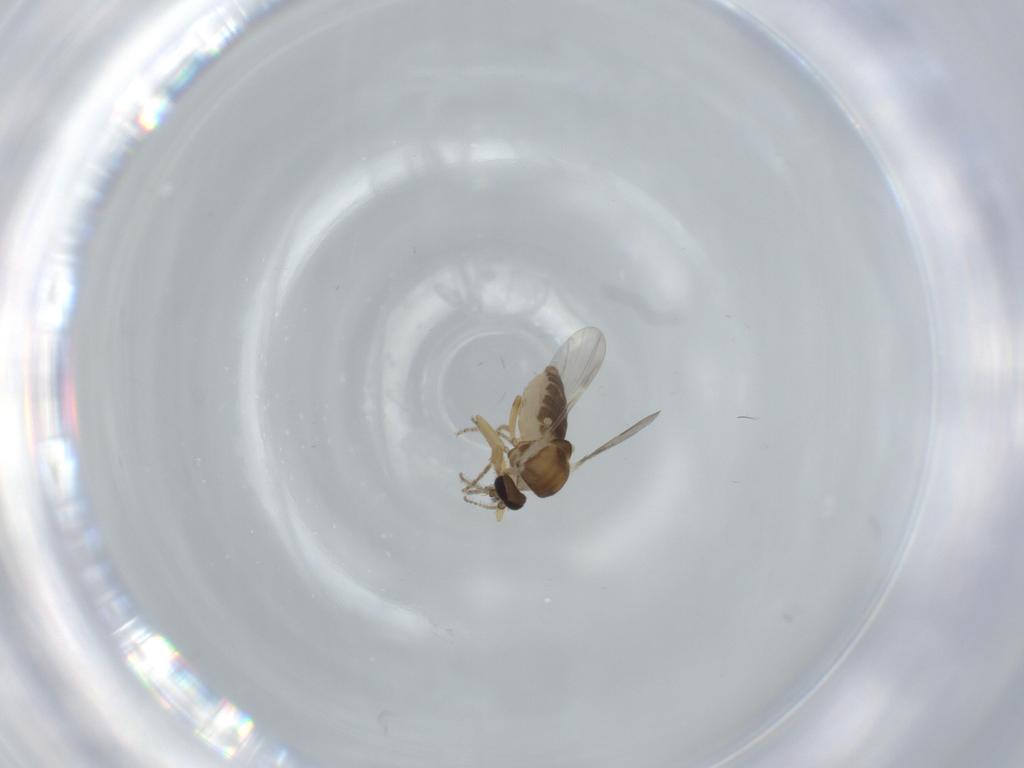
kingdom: Animalia
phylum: Arthropoda
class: Insecta
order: Diptera
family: Ceratopogonidae
